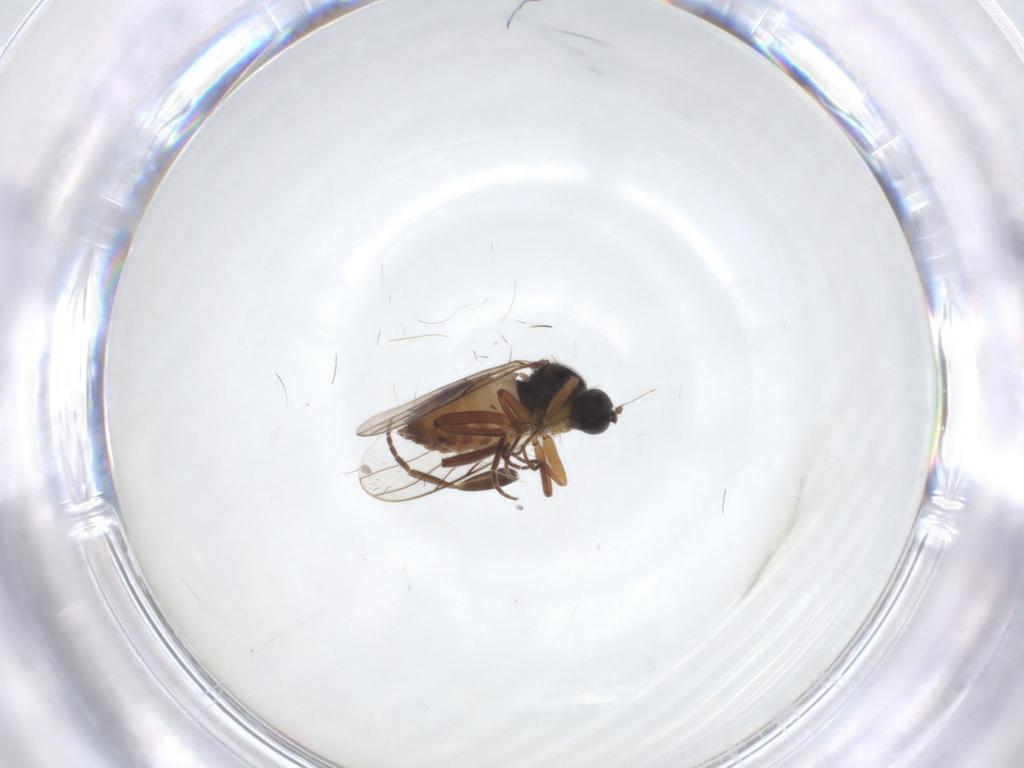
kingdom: Animalia
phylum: Arthropoda
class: Insecta
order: Diptera
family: Hybotidae
